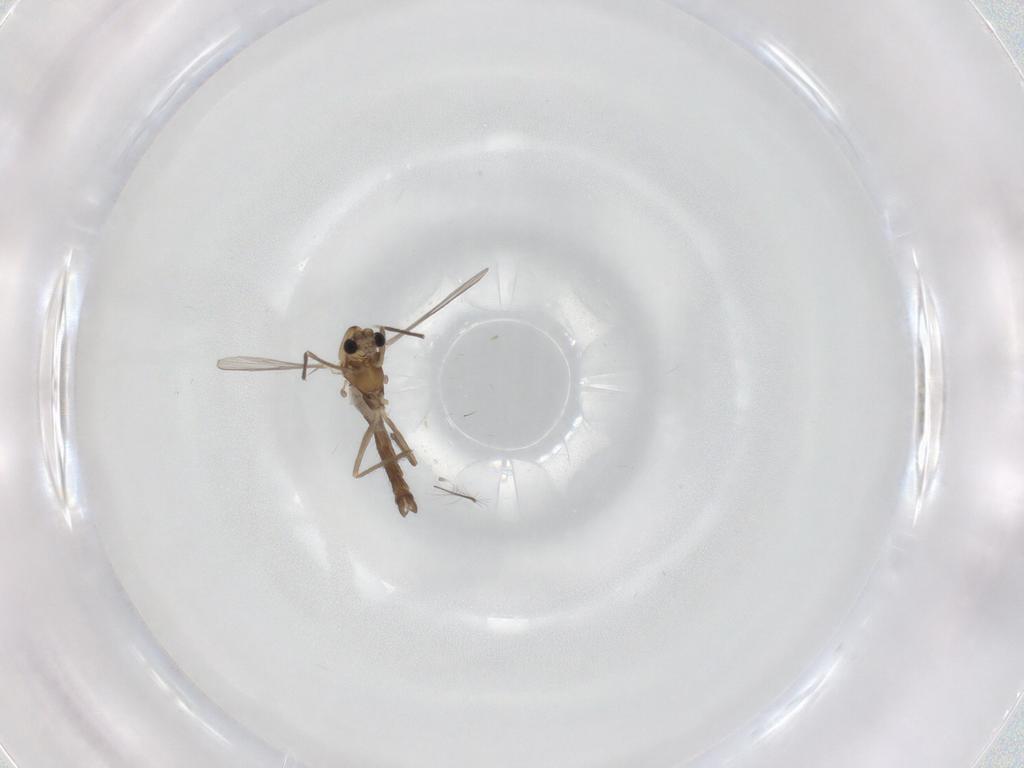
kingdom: Animalia
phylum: Arthropoda
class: Insecta
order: Diptera
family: Chironomidae
